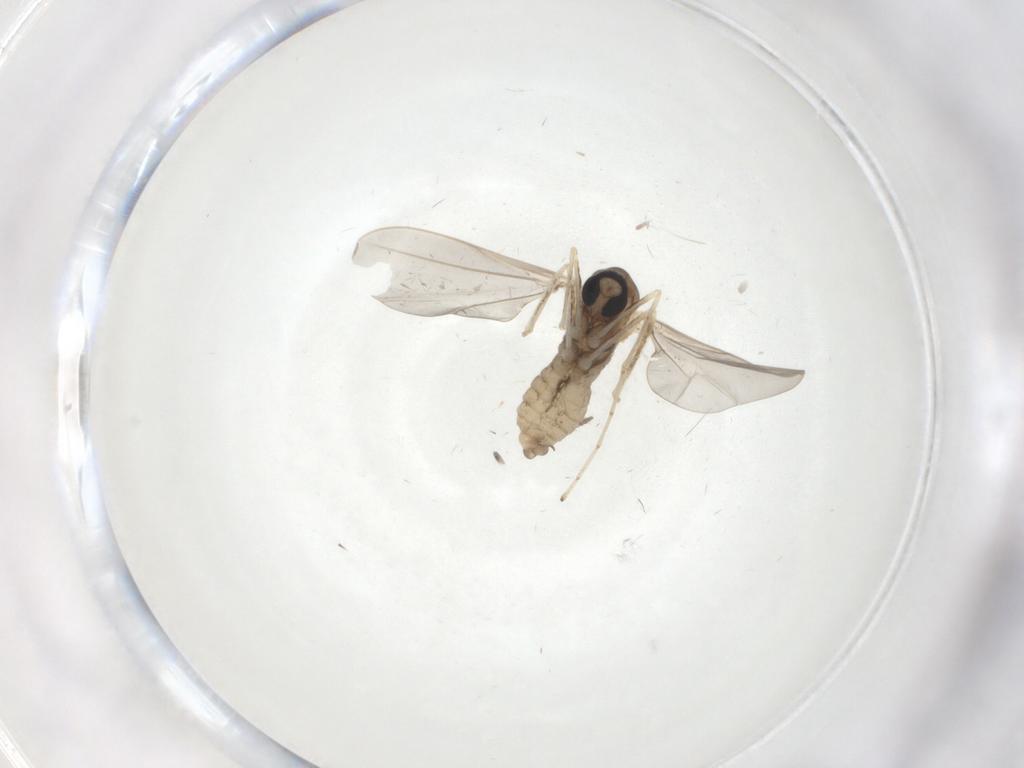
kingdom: Animalia
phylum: Arthropoda
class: Insecta
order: Diptera
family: Cecidomyiidae
